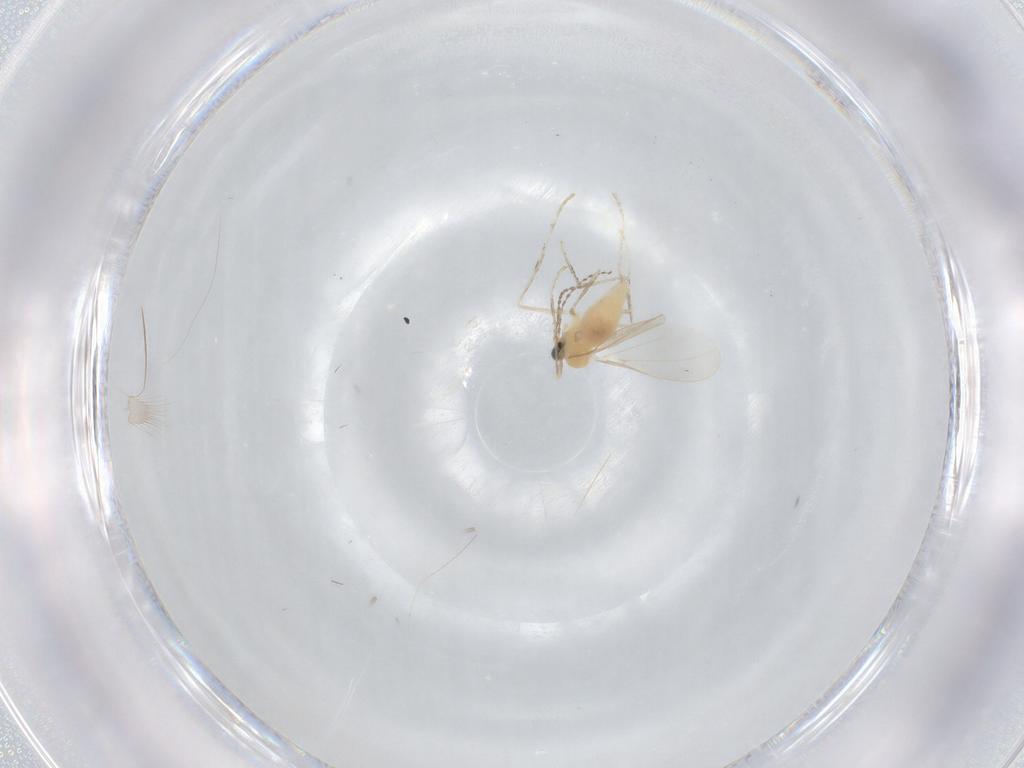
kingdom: Animalia
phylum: Arthropoda
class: Insecta
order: Diptera
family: Cecidomyiidae
